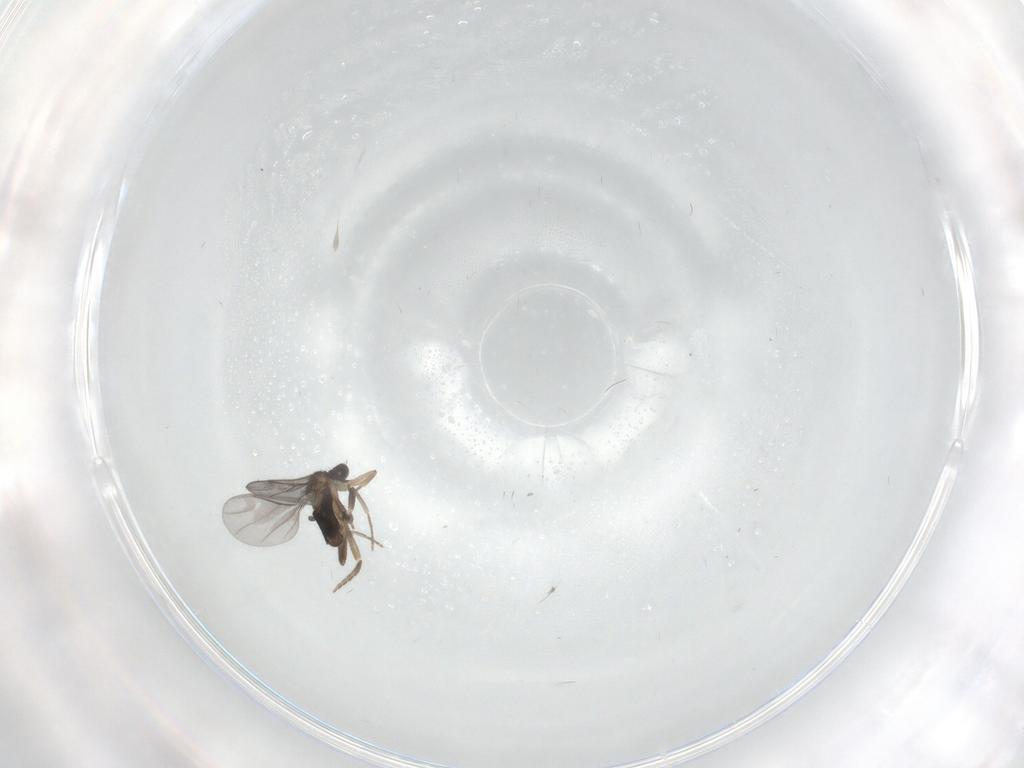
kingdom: Animalia
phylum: Arthropoda
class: Insecta
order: Diptera
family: Phoridae
